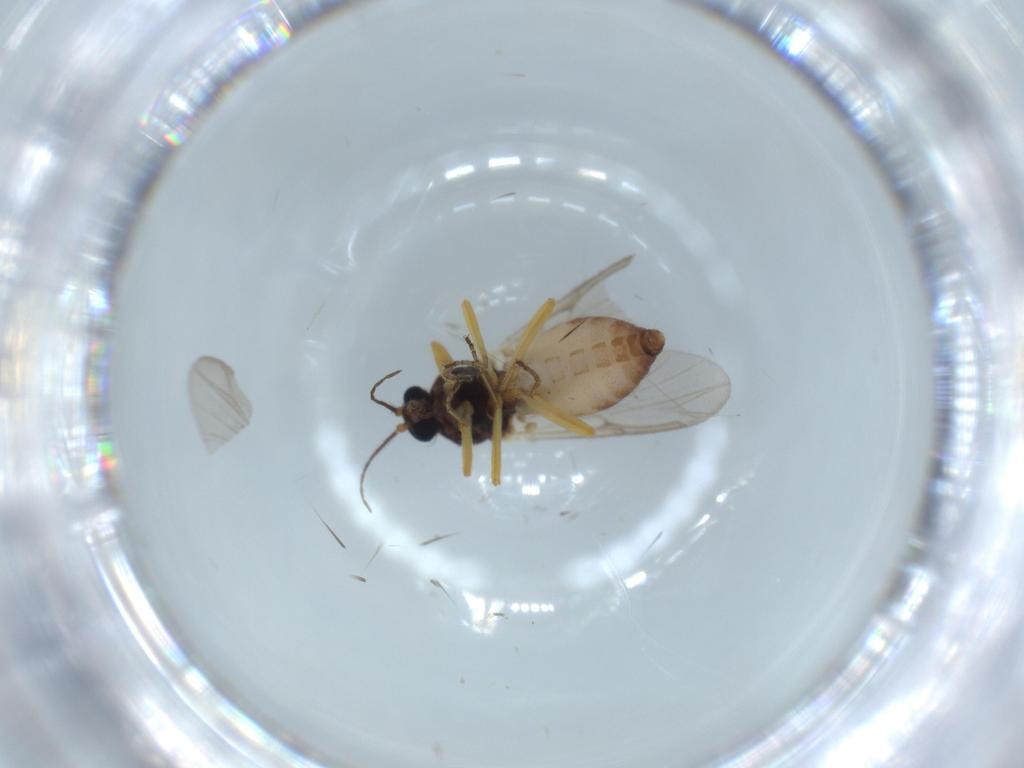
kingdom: Animalia
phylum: Arthropoda
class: Insecta
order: Diptera
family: Ceratopogonidae
